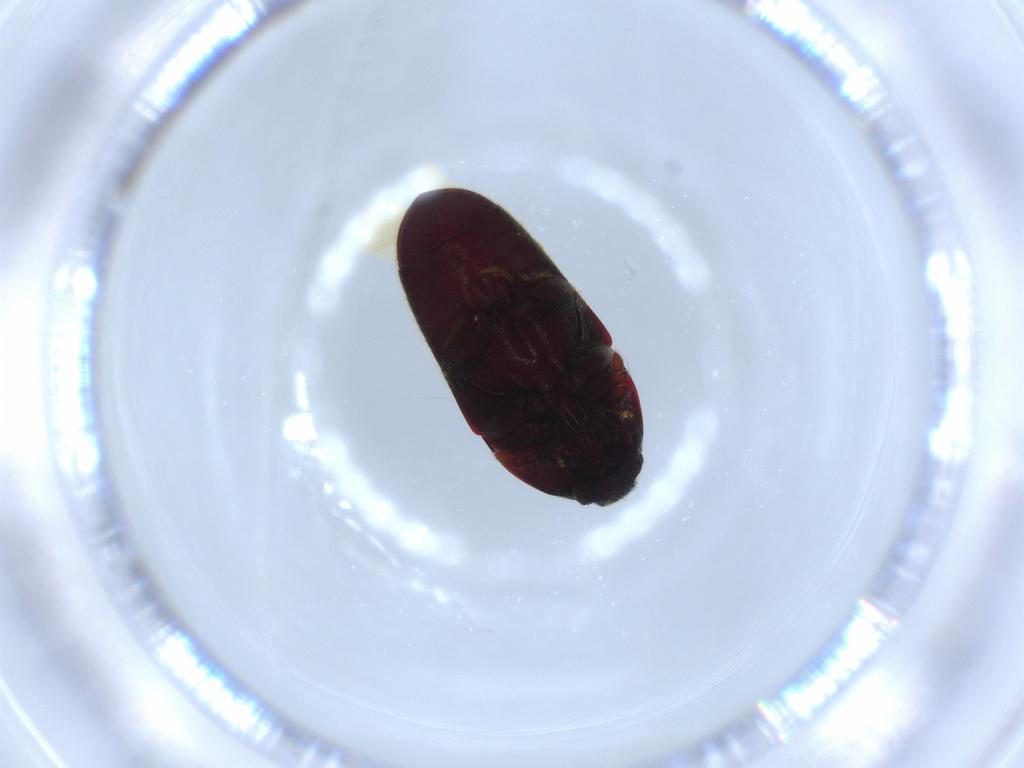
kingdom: Animalia
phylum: Arthropoda
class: Insecta
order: Coleoptera
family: Throscidae
